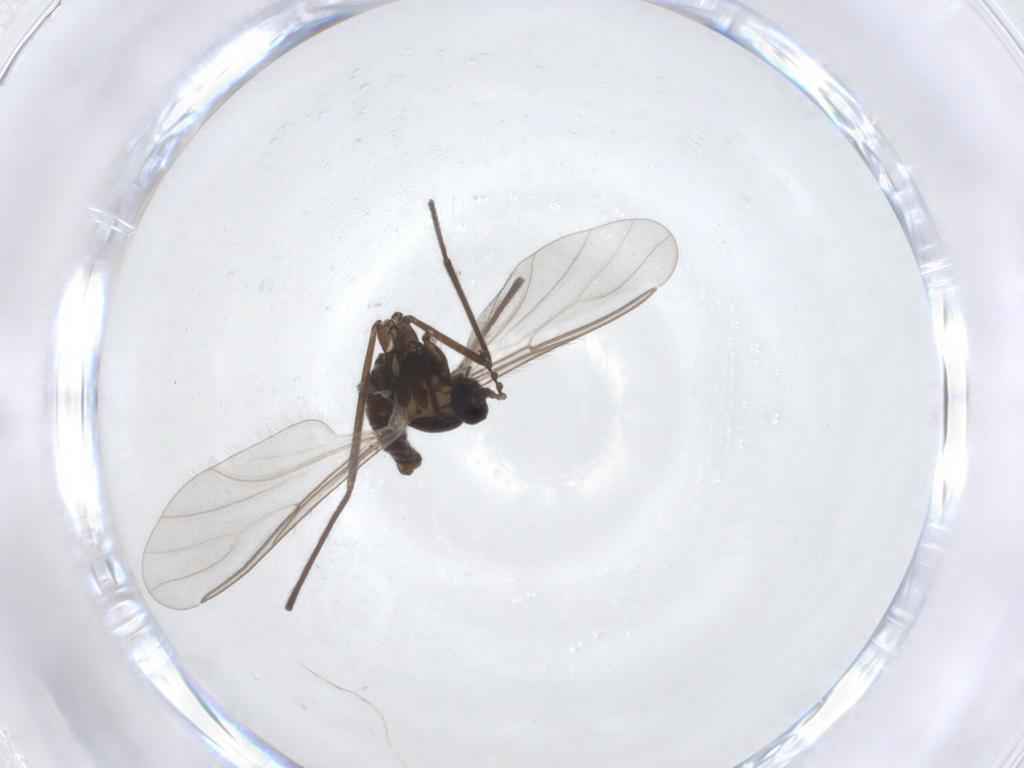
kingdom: Animalia
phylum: Arthropoda
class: Insecta
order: Diptera
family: Cecidomyiidae
